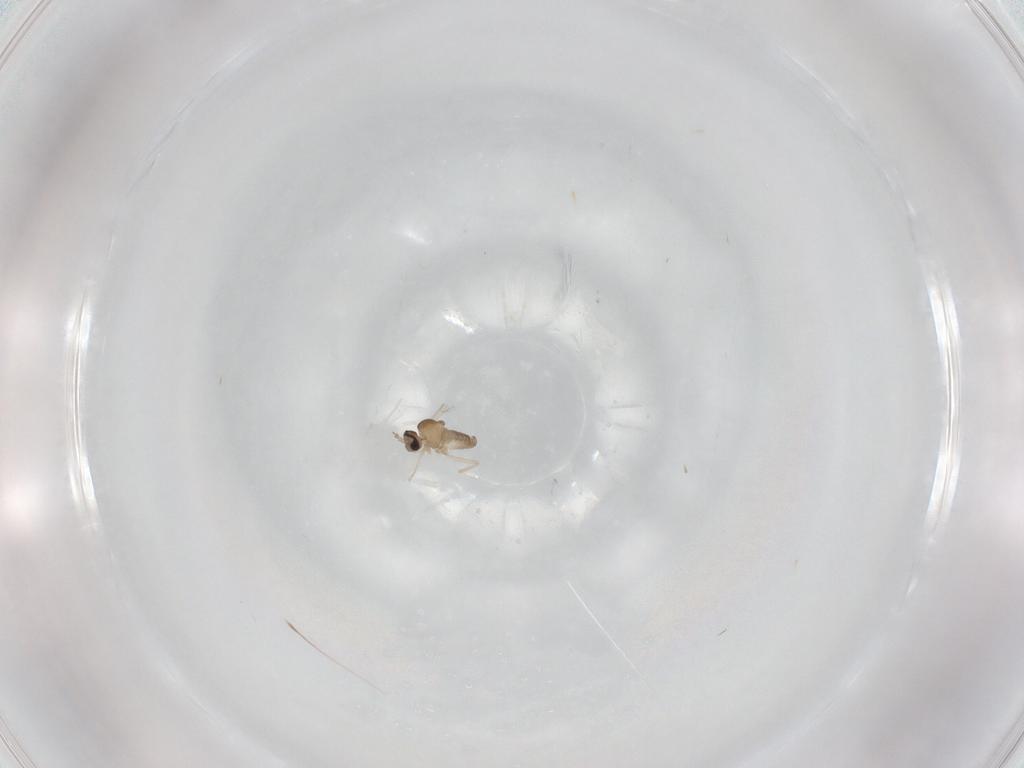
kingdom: Animalia
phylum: Arthropoda
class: Insecta
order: Diptera
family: Cecidomyiidae
